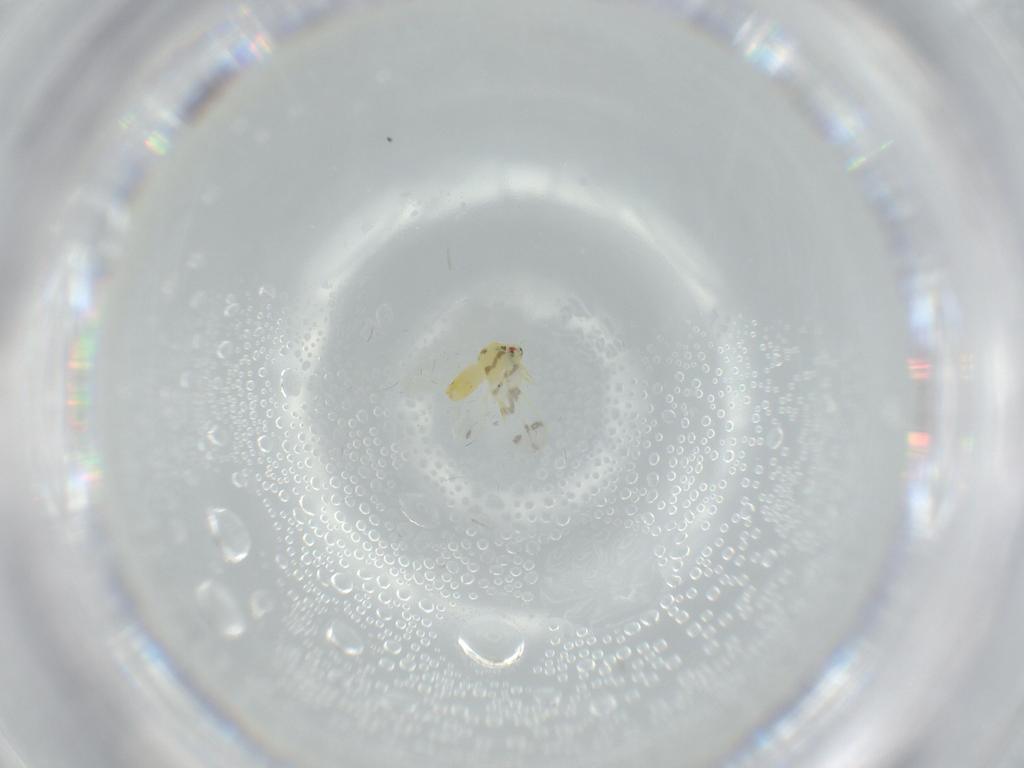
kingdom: Animalia
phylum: Arthropoda
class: Insecta
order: Hemiptera
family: Aleyrodidae
